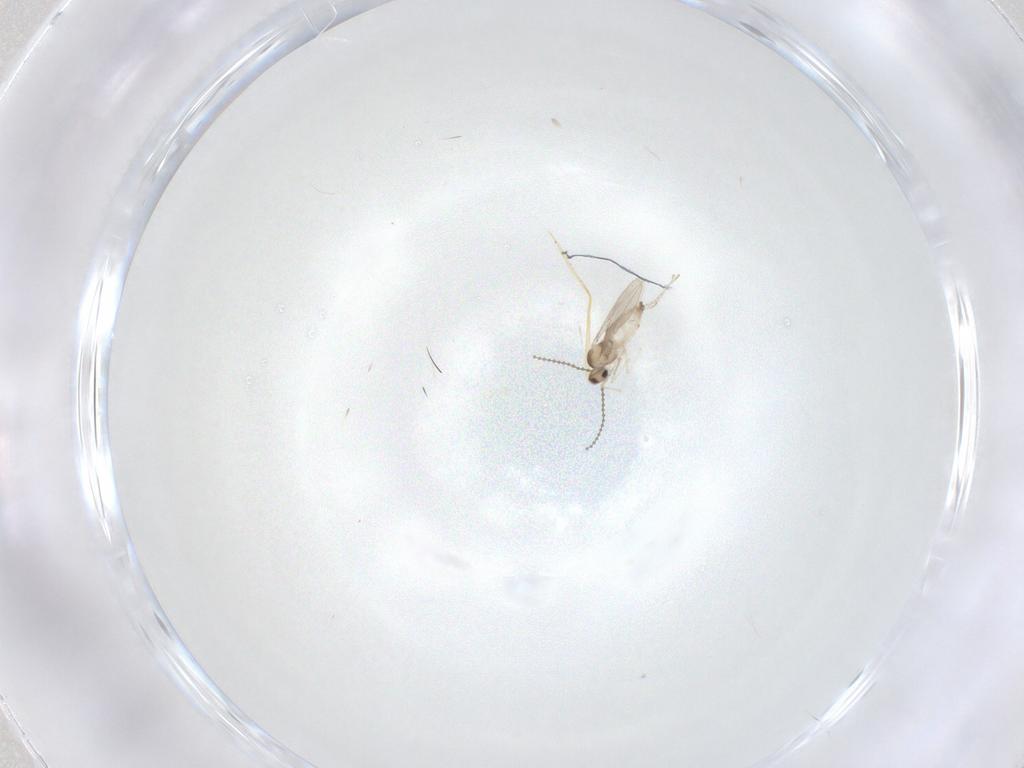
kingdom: Animalia
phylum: Arthropoda
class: Insecta
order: Diptera
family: Cecidomyiidae
